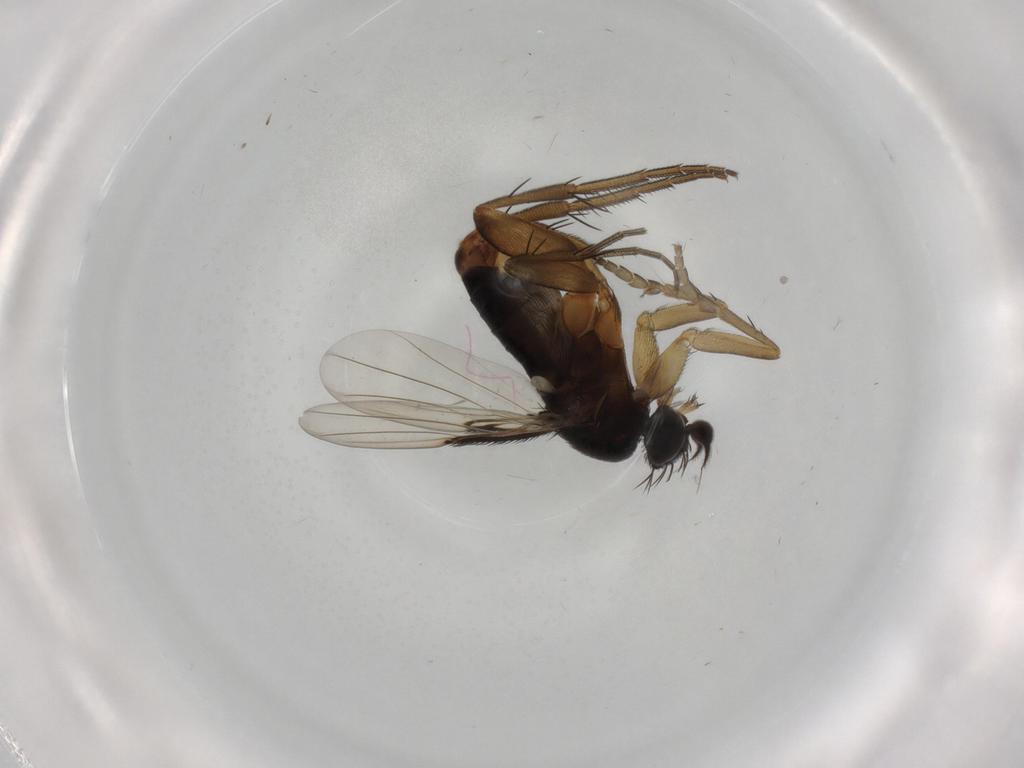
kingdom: Animalia
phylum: Arthropoda
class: Insecta
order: Diptera
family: Phoridae
